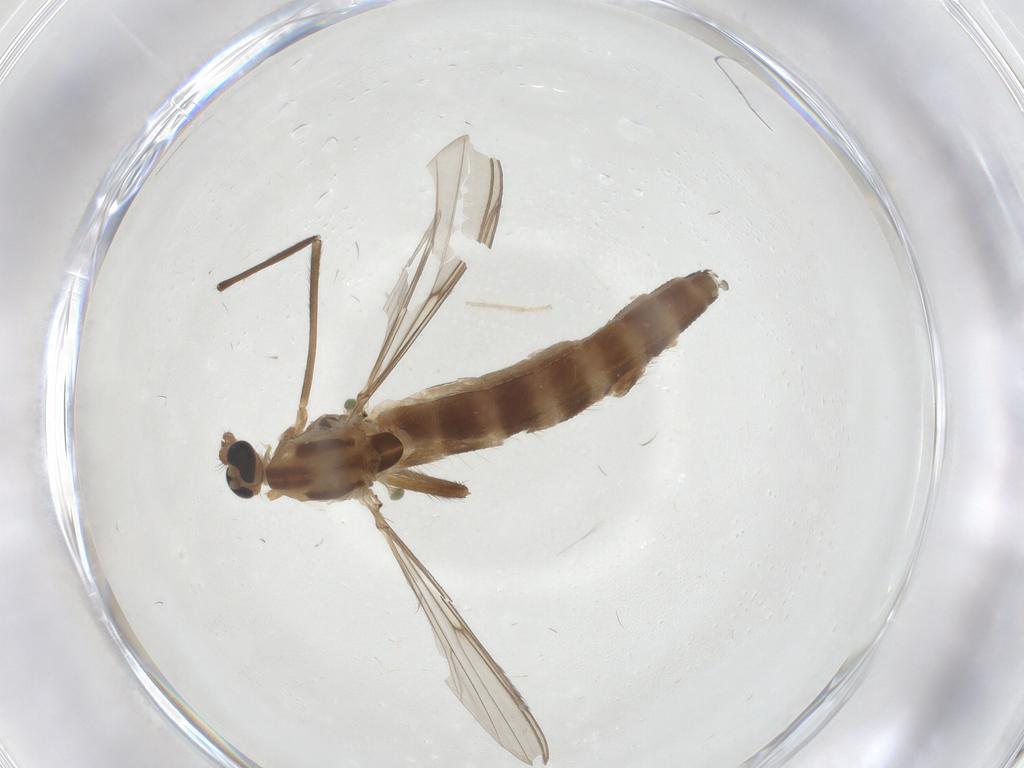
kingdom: Animalia
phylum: Arthropoda
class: Insecta
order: Diptera
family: Chironomidae
